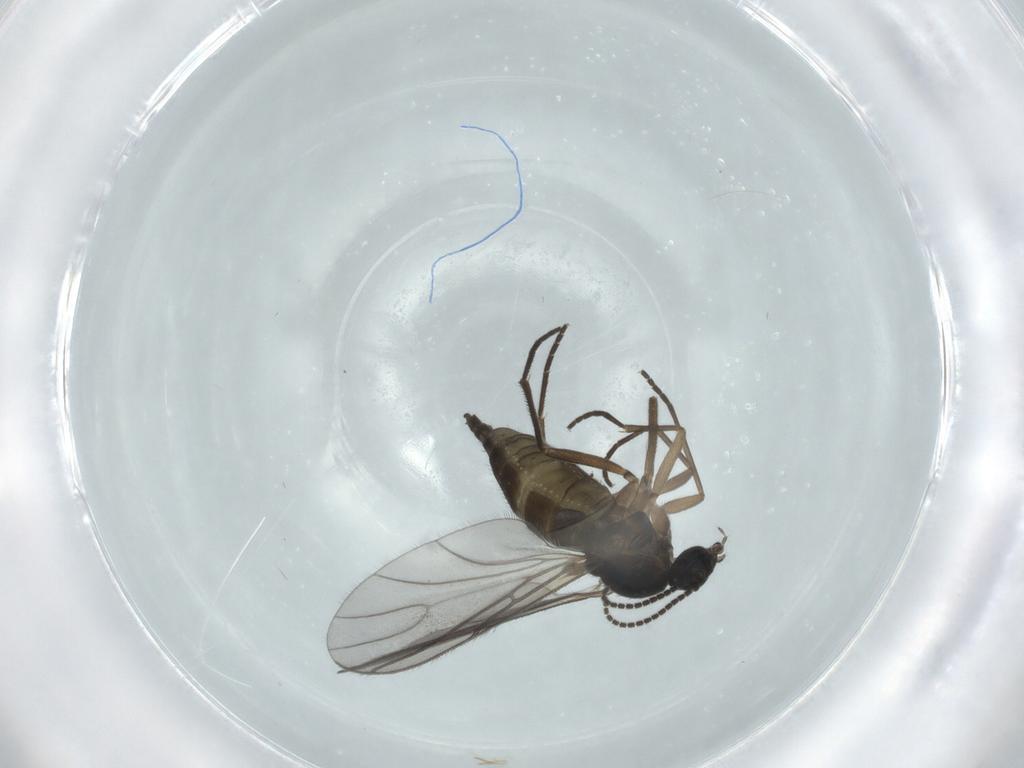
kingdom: Animalia
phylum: Arthropoda
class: Insecta
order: Diptera
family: Sciaridae
